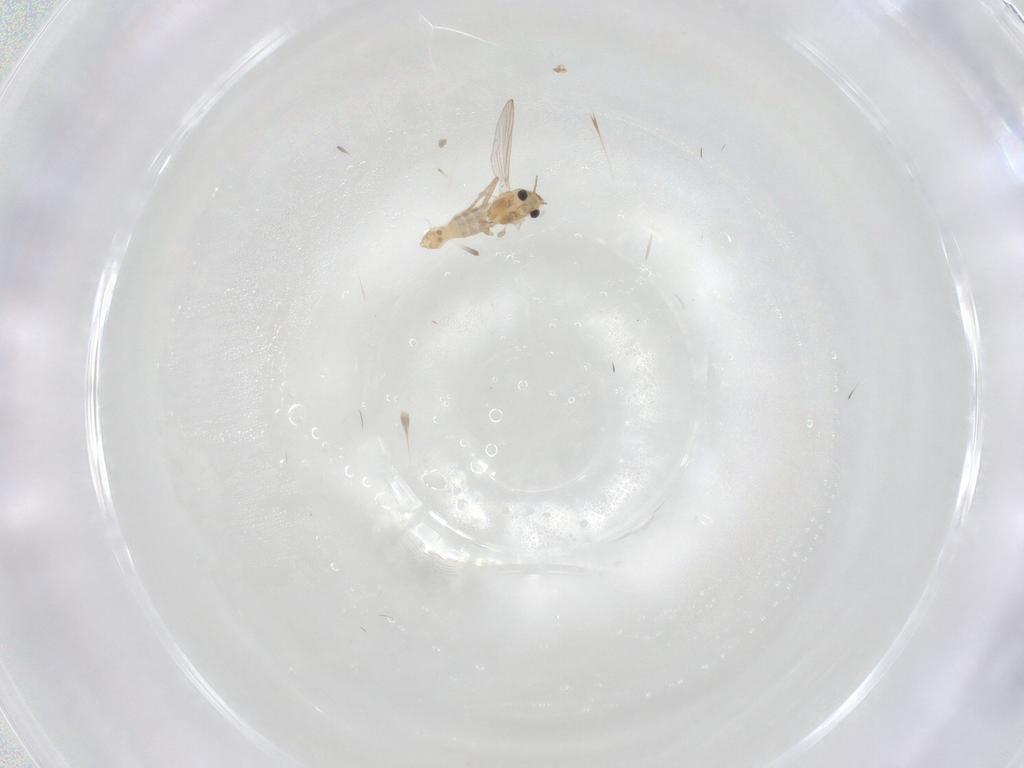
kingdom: Animalia
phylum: Arthropoda
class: Insecta
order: Diptera
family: Chironomidae
